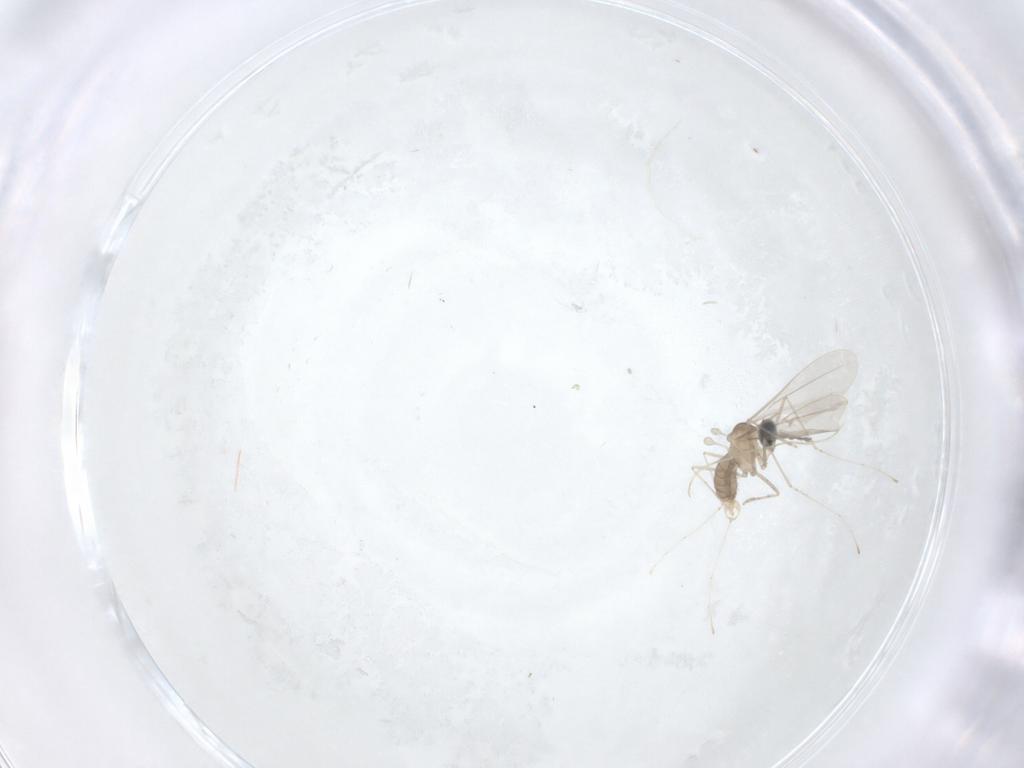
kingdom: Animalia
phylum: Arthropoda
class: Insecta
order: Diptera
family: Cecidomyiidae
